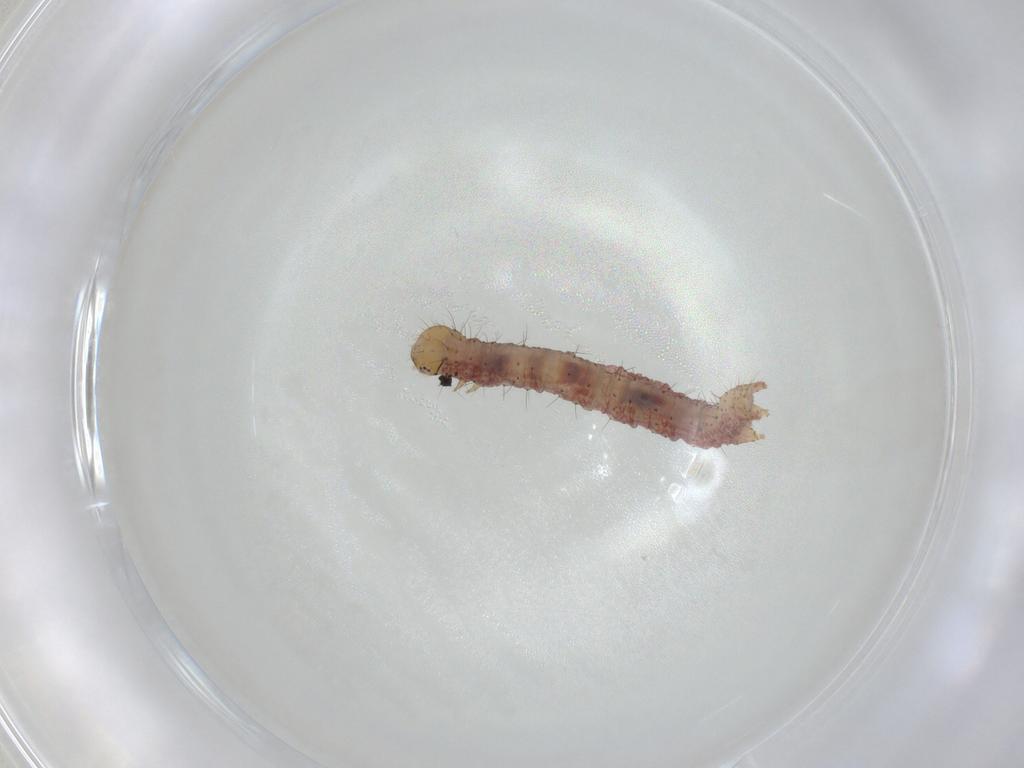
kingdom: Animalia
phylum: Arthropoda
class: Insecta
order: Lepidoptera
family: Geometridae
